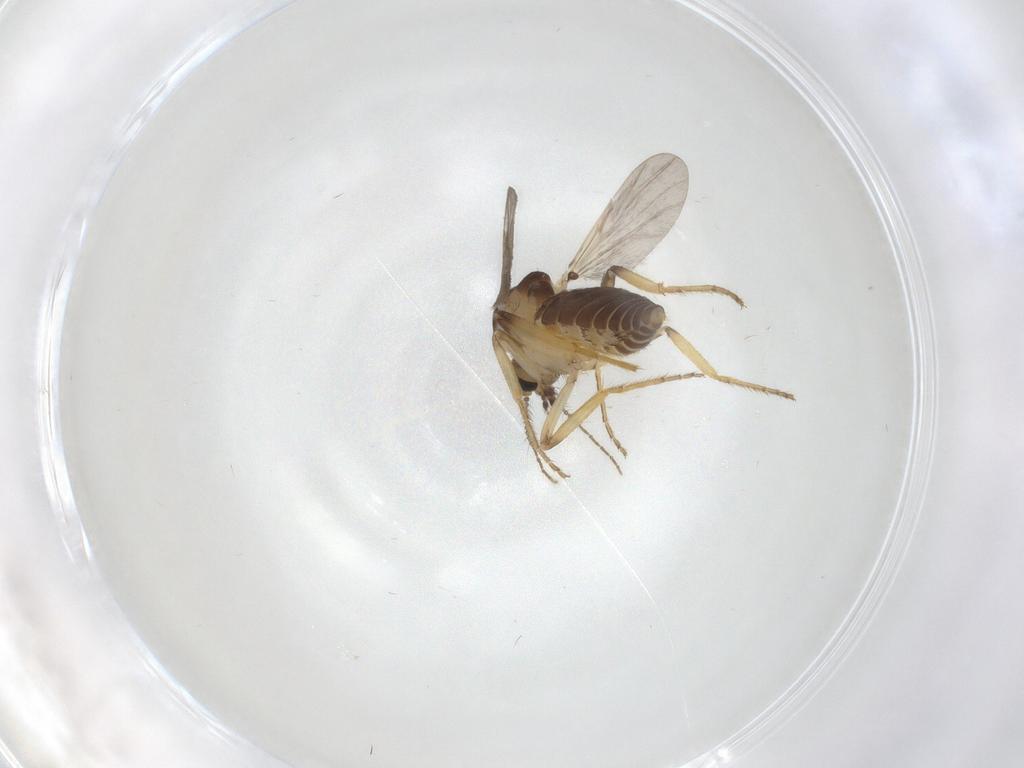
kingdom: Animalia
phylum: Arthropoda
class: Insecta
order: Diptera
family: Ceratopogonidae
